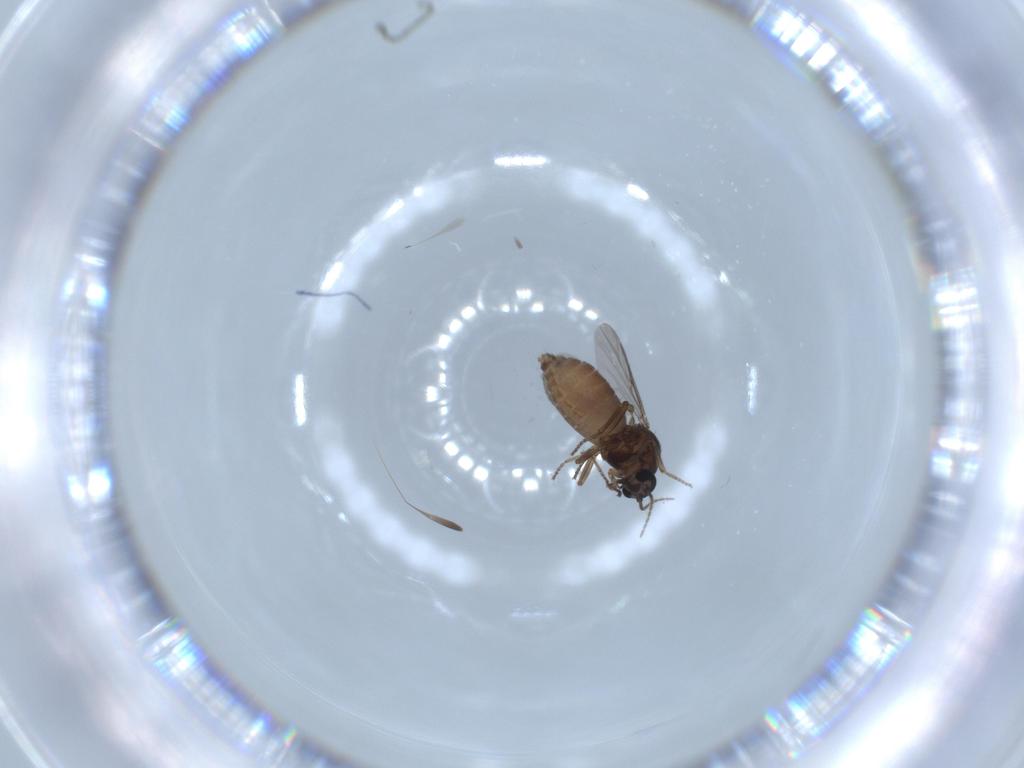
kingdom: Animalia
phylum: Arthropoda
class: Insecta
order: Diptera
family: Ceratopogonidae
